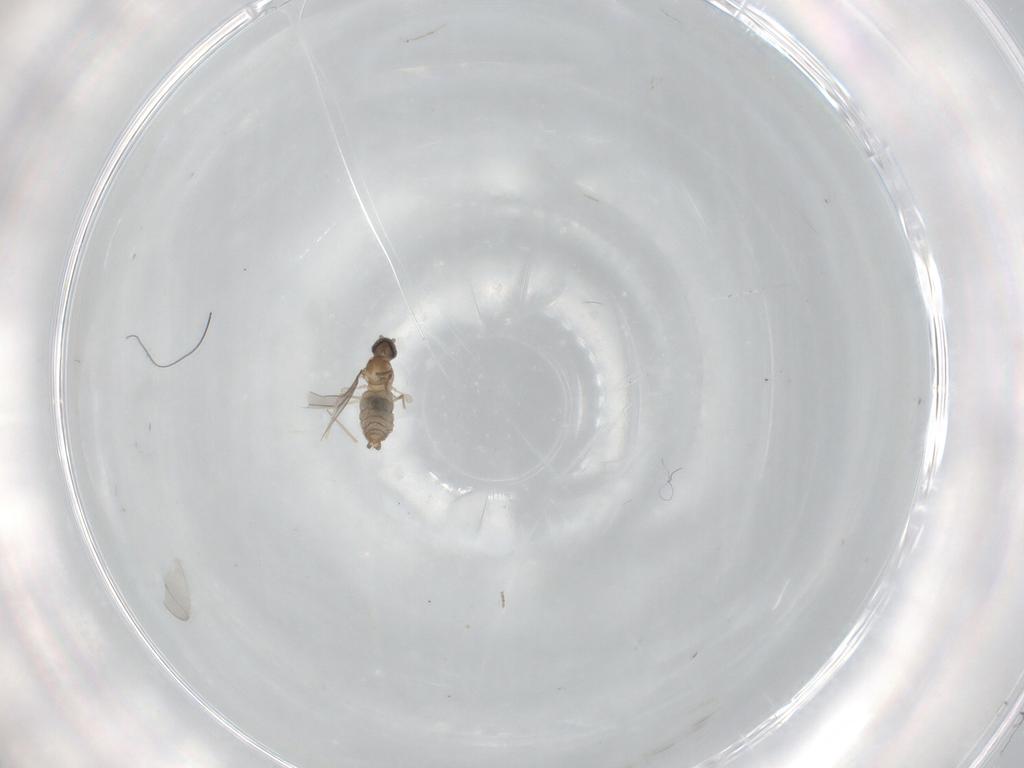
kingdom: Animalia
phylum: Arthropoda
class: Insecta
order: Diptera
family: Cecidomyiidae
